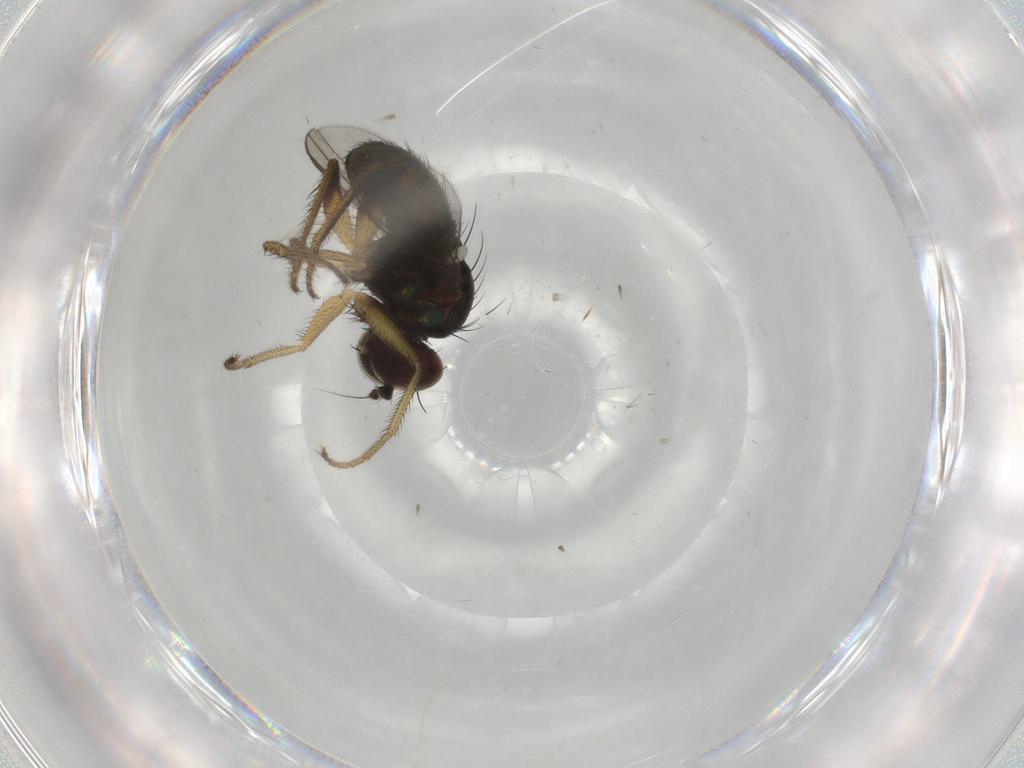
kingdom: Animalia
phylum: Arthropoda
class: Insecta
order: Diptera
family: Dolichopodidae
